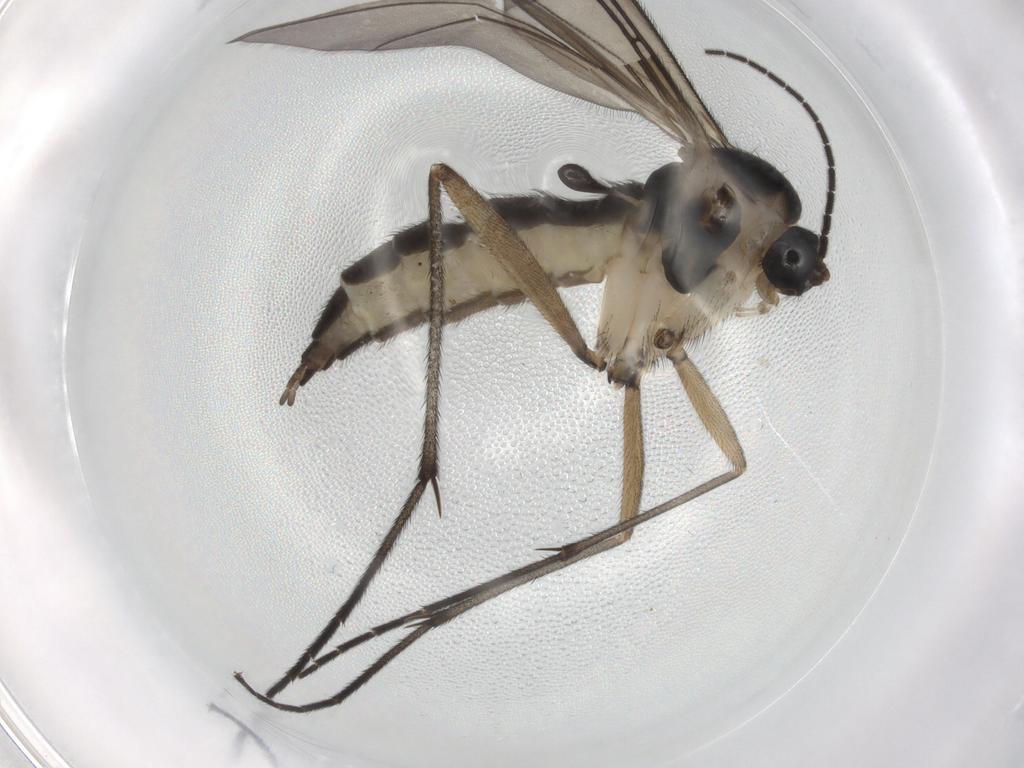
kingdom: Animalia
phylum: Arthropoda
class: Insecta
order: Diptera
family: Sciaridae
